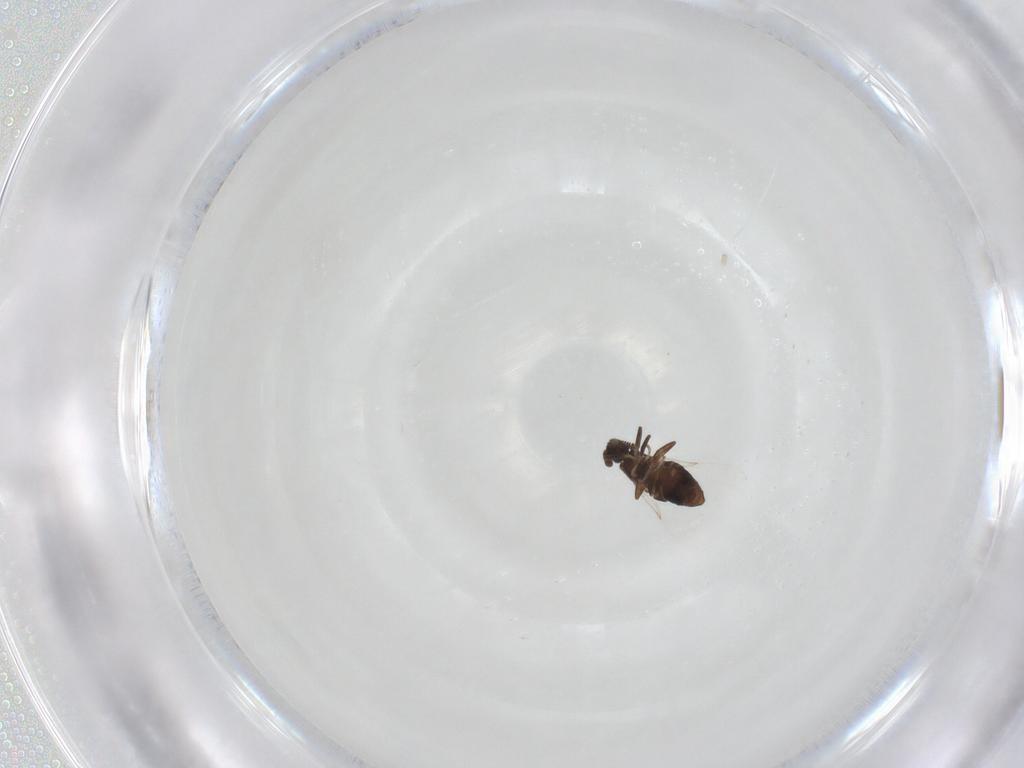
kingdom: Animalia
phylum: Arthropoda
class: Insecta
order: Diptera
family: Scatopsidae
